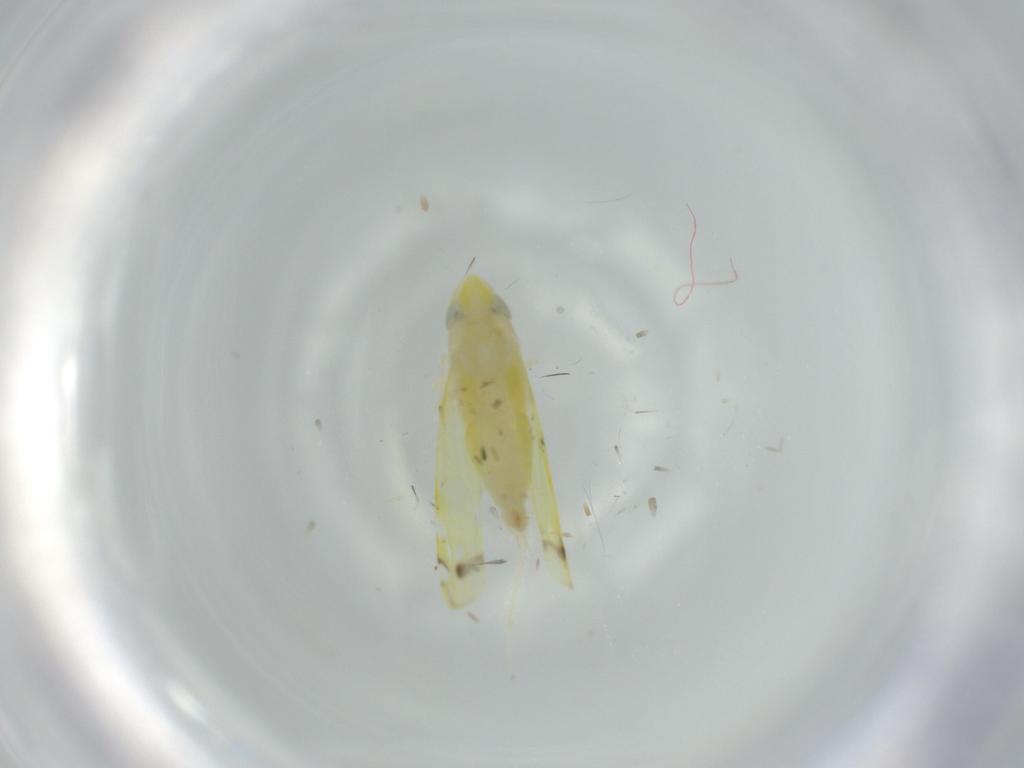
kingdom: Animalia
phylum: Arthropoda
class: Insecta
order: Hemiptera
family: Cicadellidae
